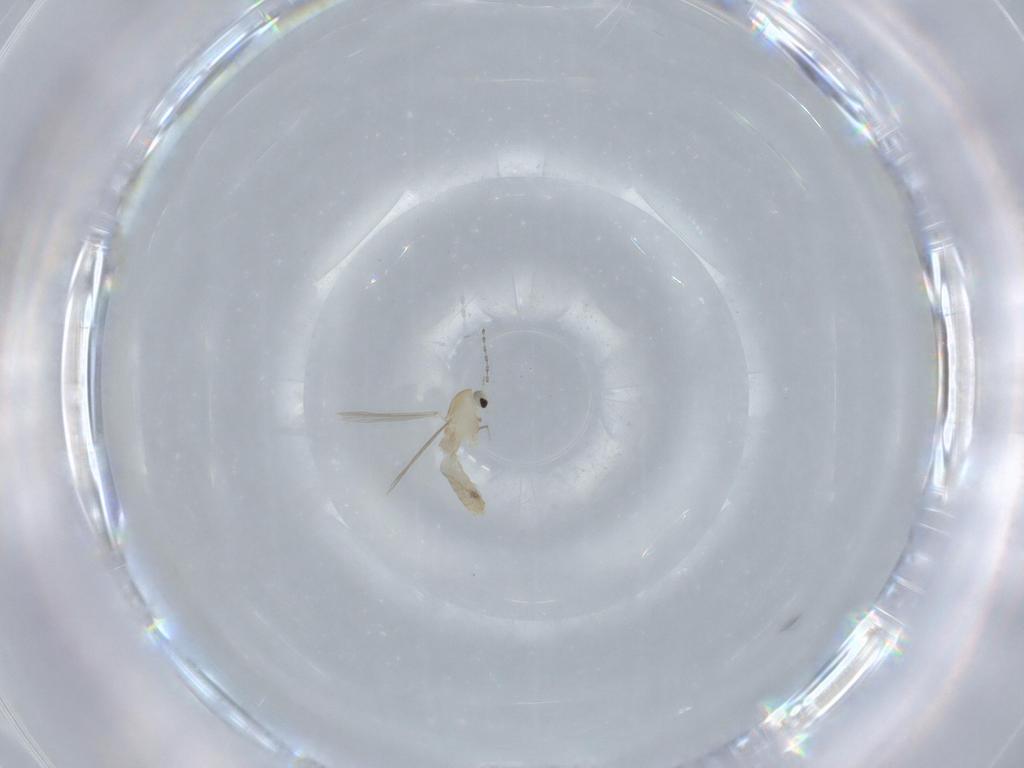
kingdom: Animalia
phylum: Arthropoda
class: Insecta
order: Diptera
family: Chironomidae
